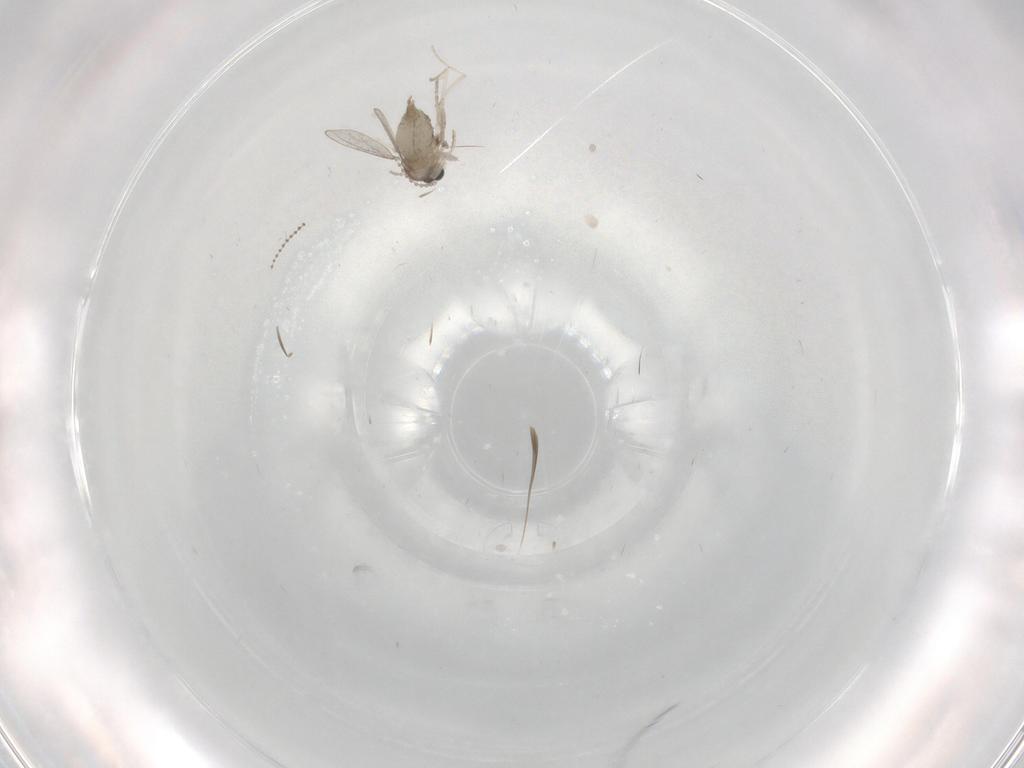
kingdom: Animalia
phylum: Arthropoda
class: Insecta
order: Diptera
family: Cecidomyiidae
